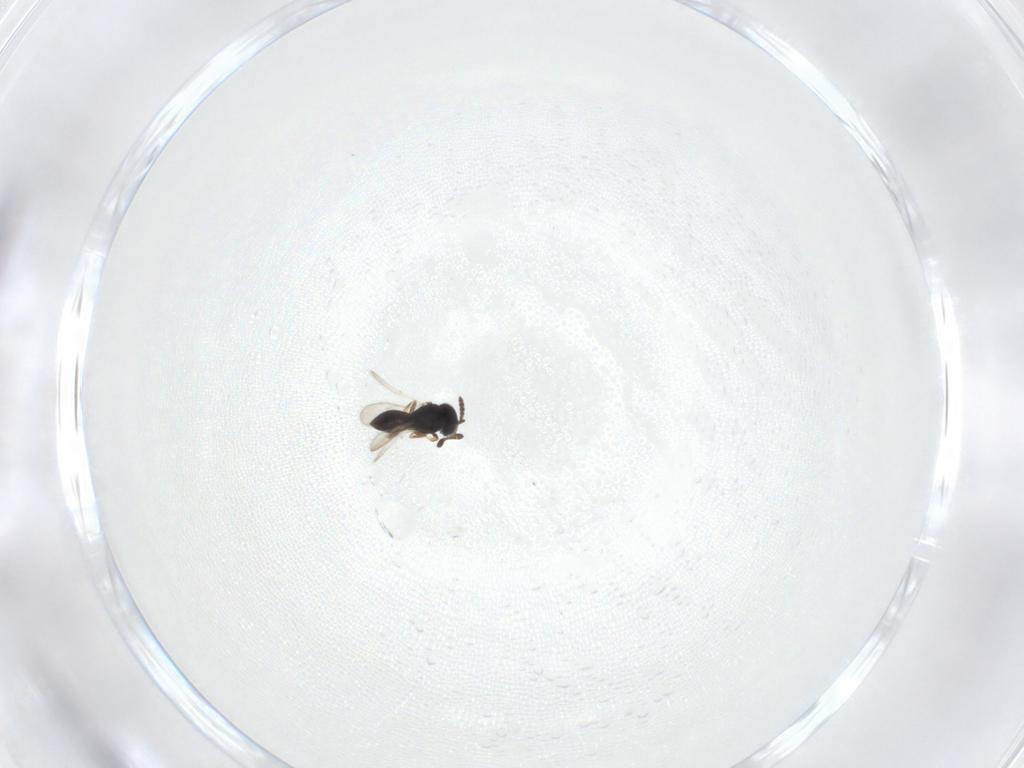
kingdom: Animalia
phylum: Arthropoda
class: Insecta
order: Hymenoptera
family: Scelionidae
